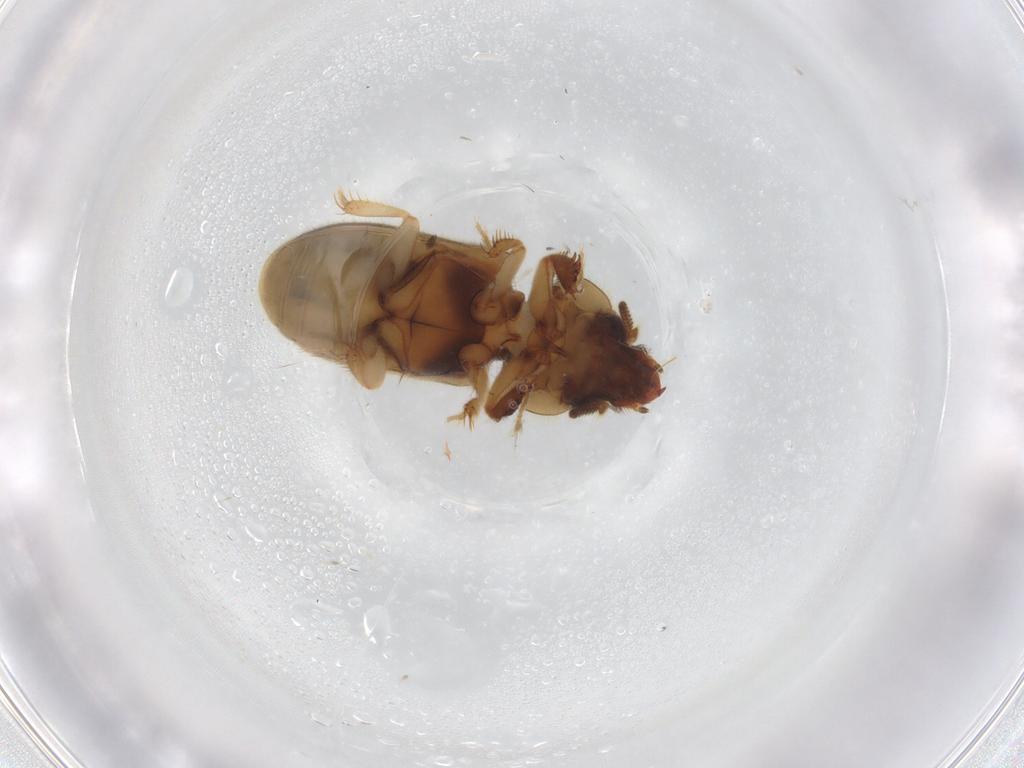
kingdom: Animalia
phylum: Arthropoda
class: Insecta
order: Coleoptera
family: Heteroceridae
